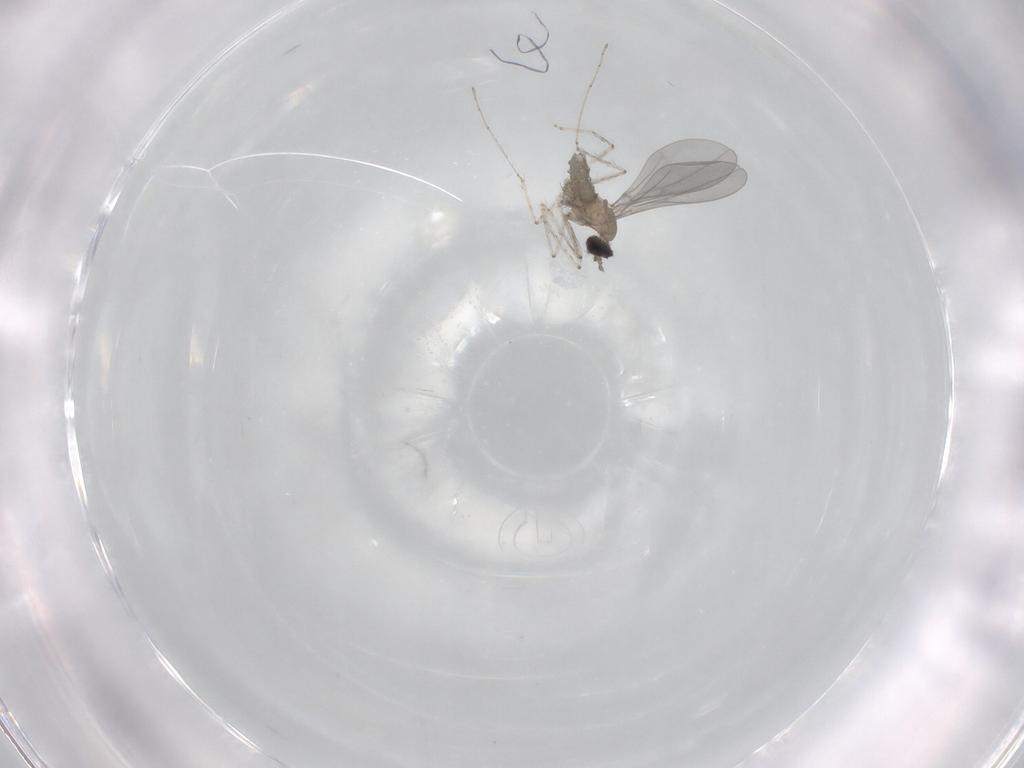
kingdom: Animalia
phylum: Arthropoda
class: Insecta
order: Diptera
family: Cecidomyiidae
